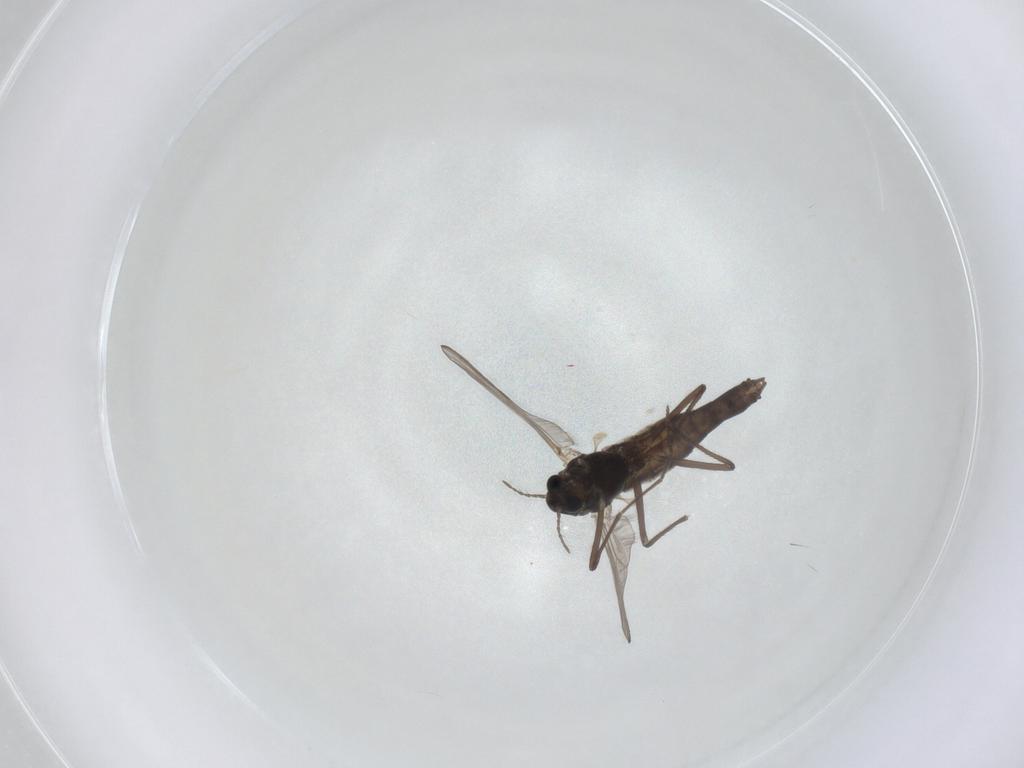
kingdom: Animalia
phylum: Arthropoda
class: Insecta
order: Diptera
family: Chironomidae
